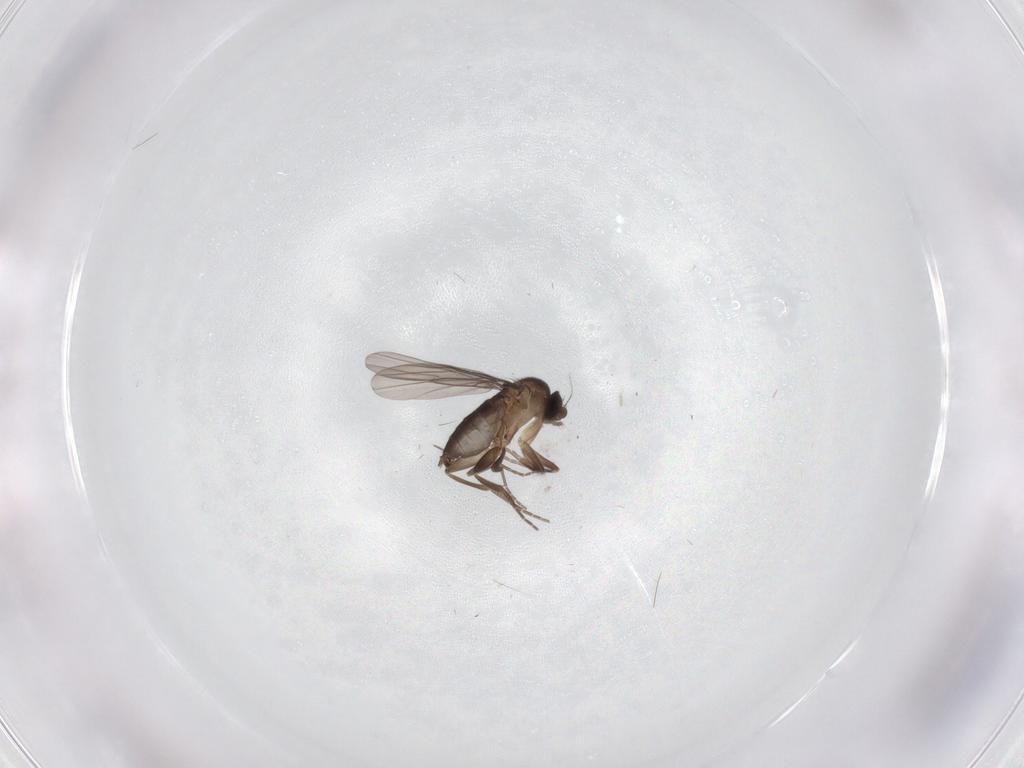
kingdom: Animalia
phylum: Arthropoda
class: Insecta
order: Diptera
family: Phoridae
